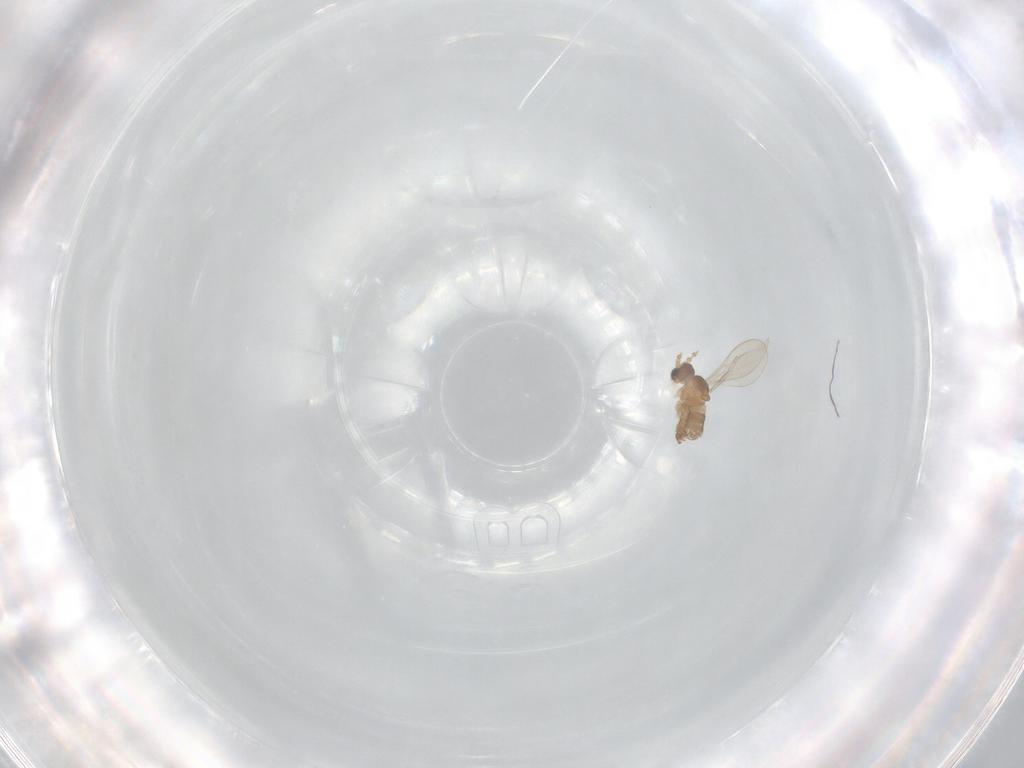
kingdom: Animalia
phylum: Arthropoda
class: Insecta
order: Diptera
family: Cecidomyiidae
